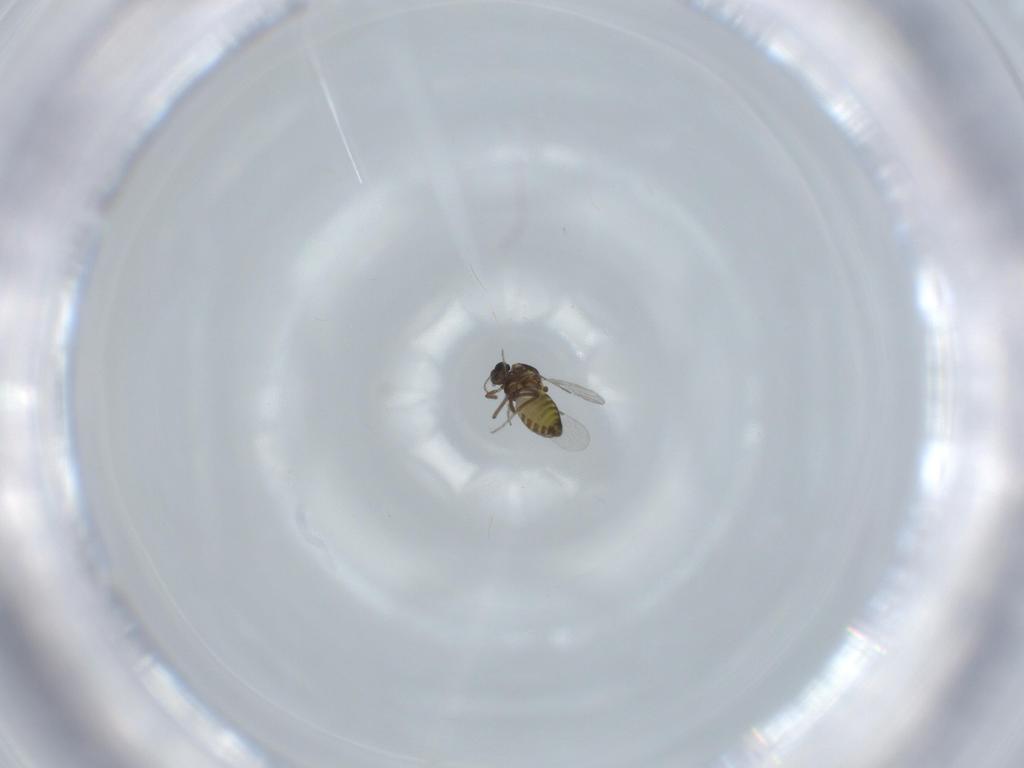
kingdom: Animalia
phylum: Arthropoda
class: Insecta
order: Diptera
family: Ceratopogonidae
